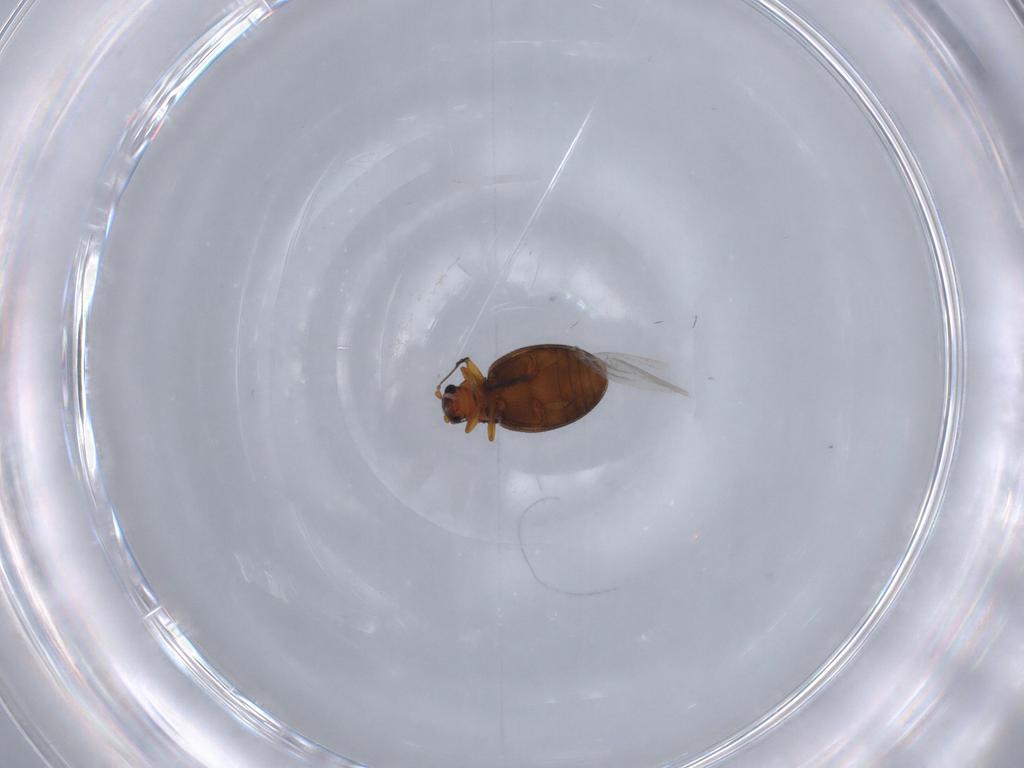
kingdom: Animalia
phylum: Arthropoda
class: Insecta
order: Coleoptera
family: Latridiidae
